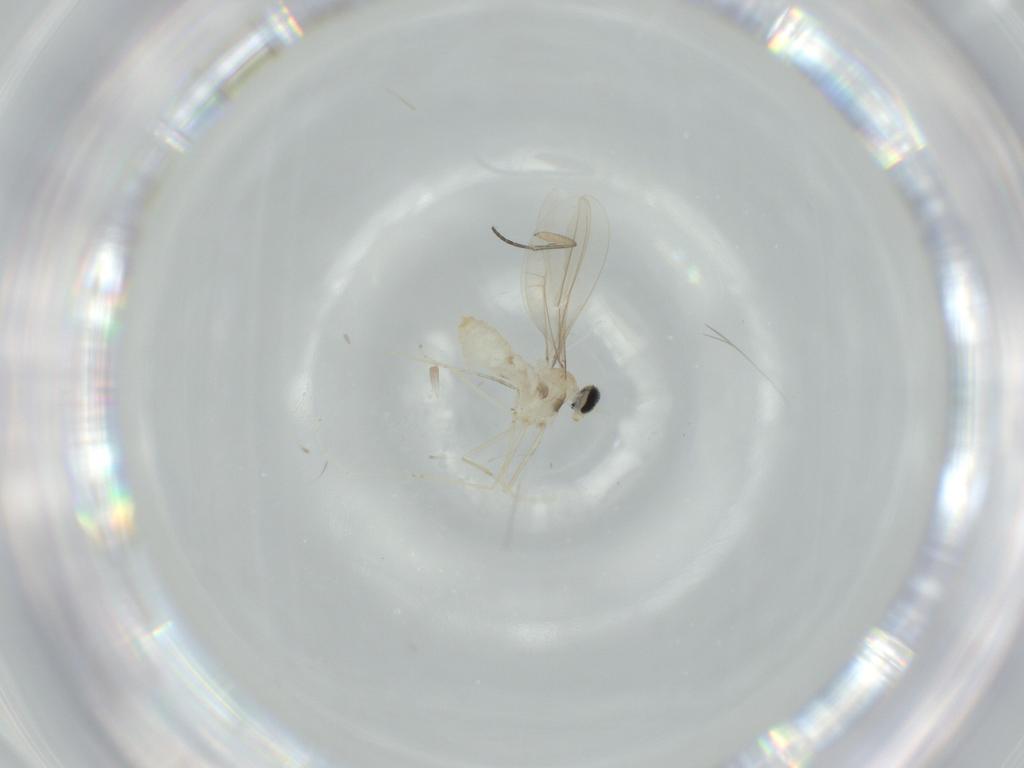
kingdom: Animalia
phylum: Arthropoda
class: Insecta
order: Diptera
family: Cecidomyiidae
